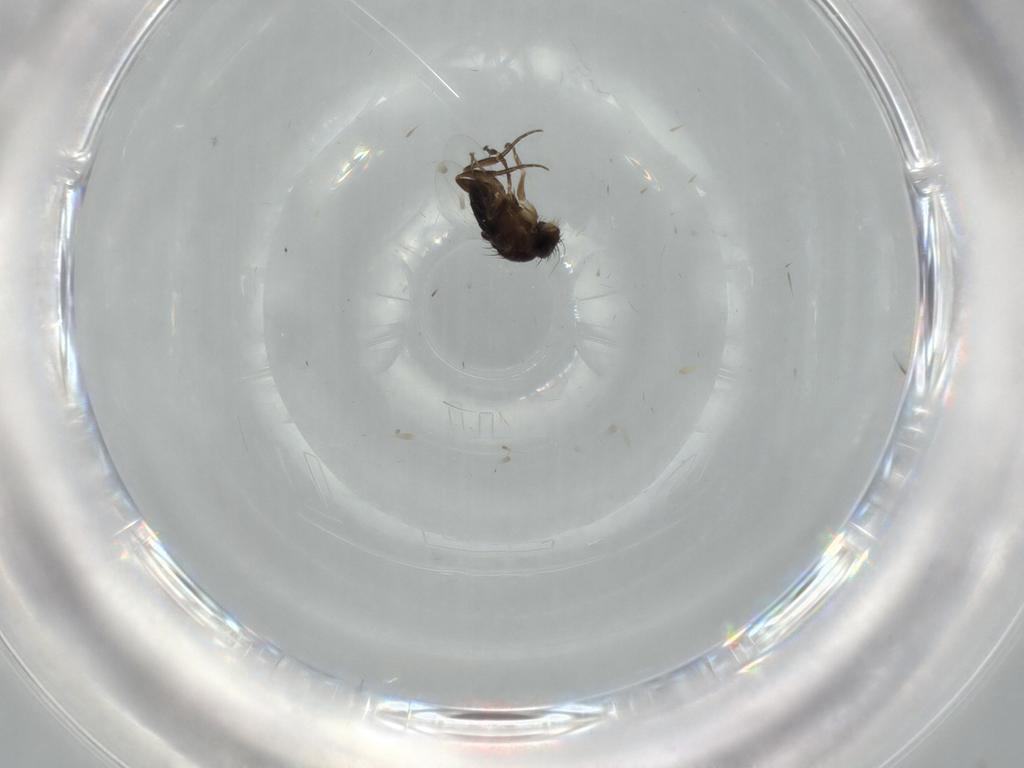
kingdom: Animalia
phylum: Arthropoda
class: Insecta
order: Diptera
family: Phoridae
